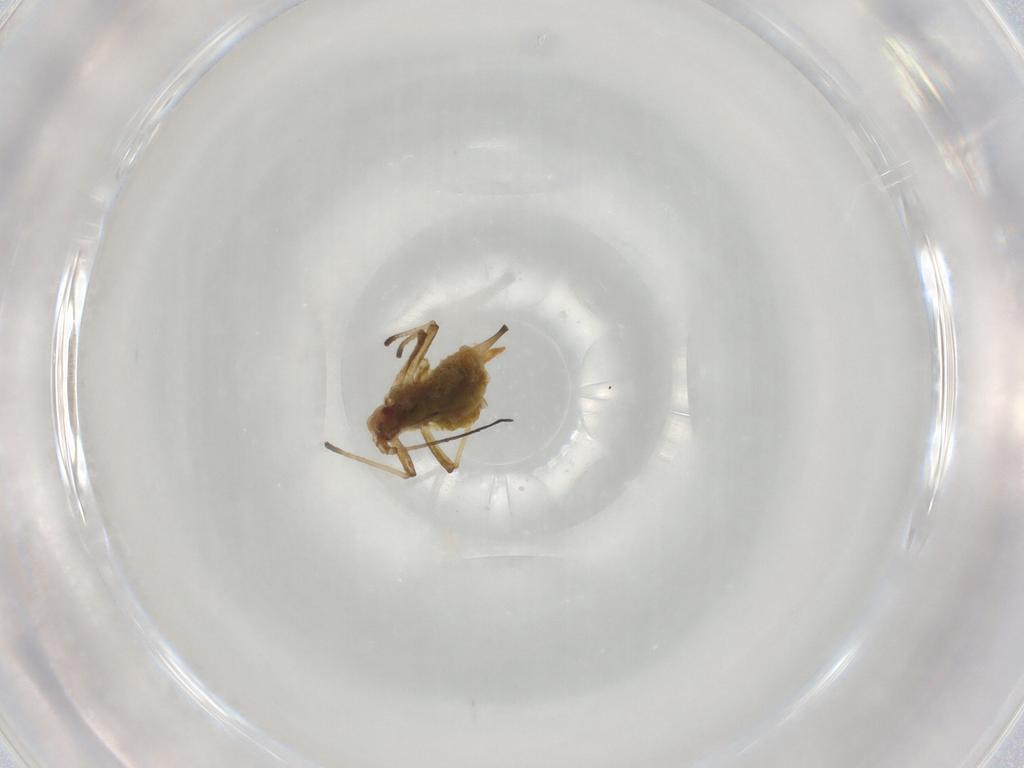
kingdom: Animalia
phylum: Arthropoda
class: Insecta
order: Hemiptera
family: Aphididae
